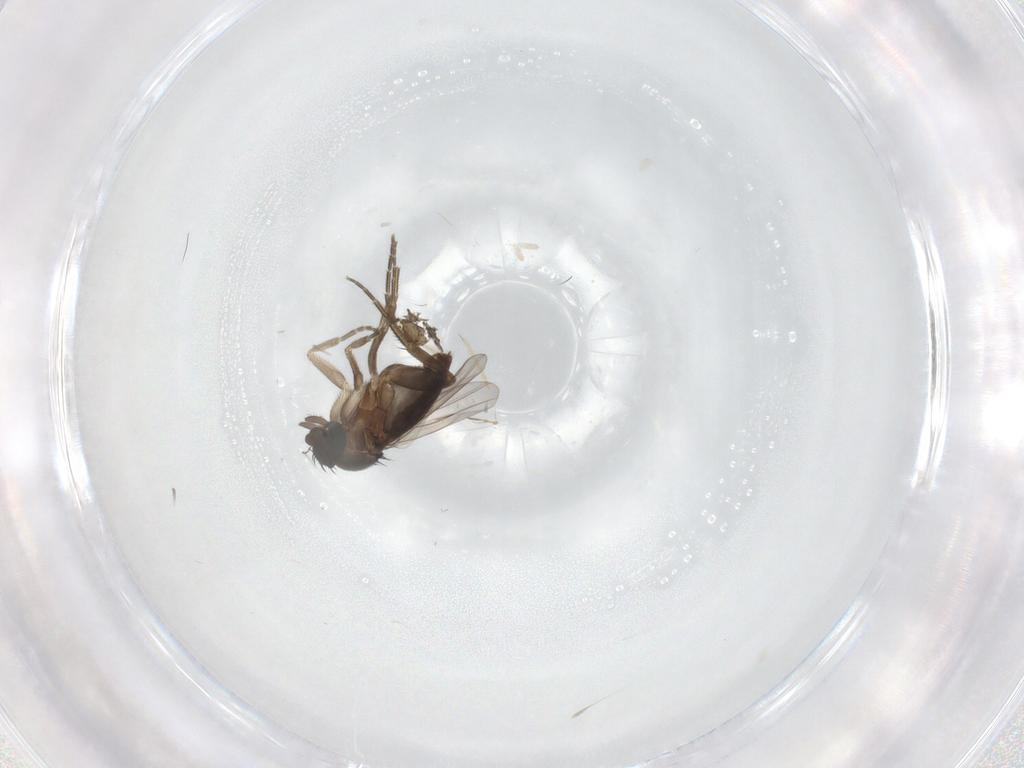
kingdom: Animalia
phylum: Arthropoda
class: Insecta
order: Diptera
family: Phoridae
